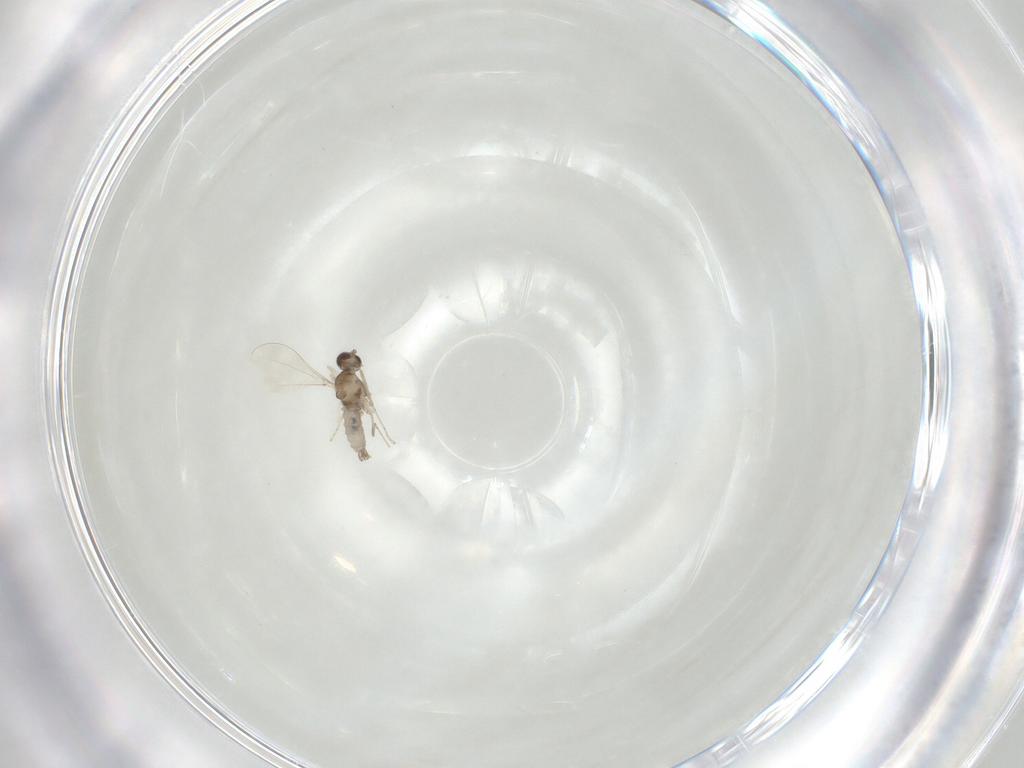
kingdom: Animalia
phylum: Arthropoda
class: Insecta
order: Diptera
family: Cecidomyiidae
